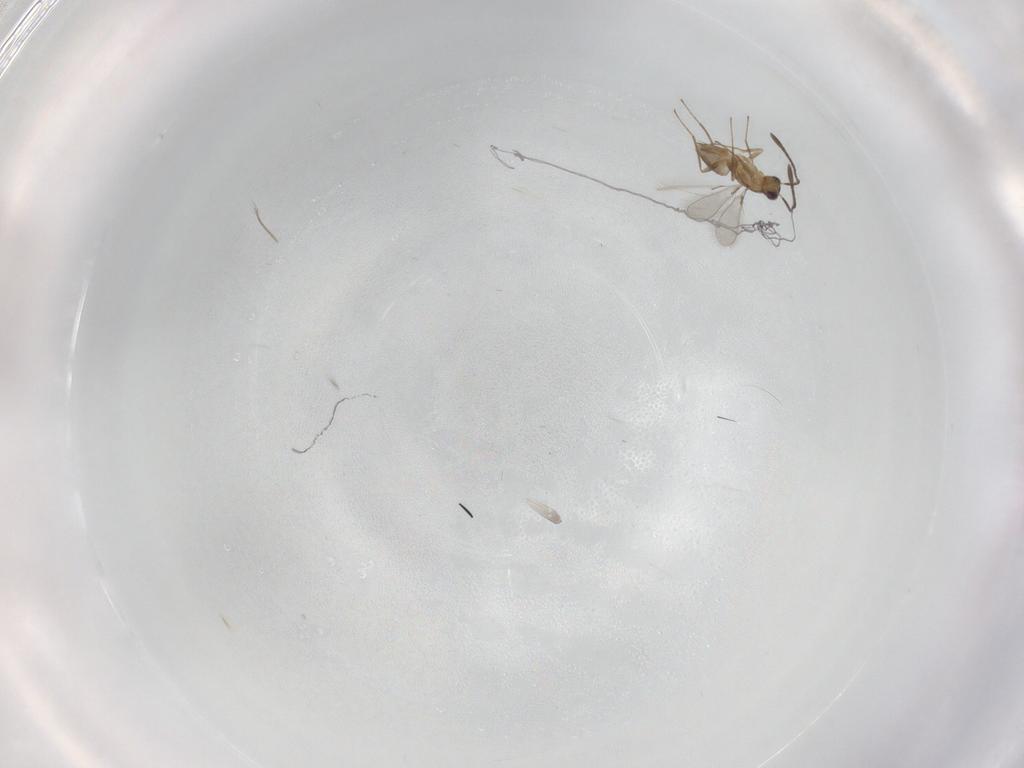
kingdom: Animalia
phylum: Arthropoda
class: Insecta
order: Hymenoptera
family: Mymaridae
